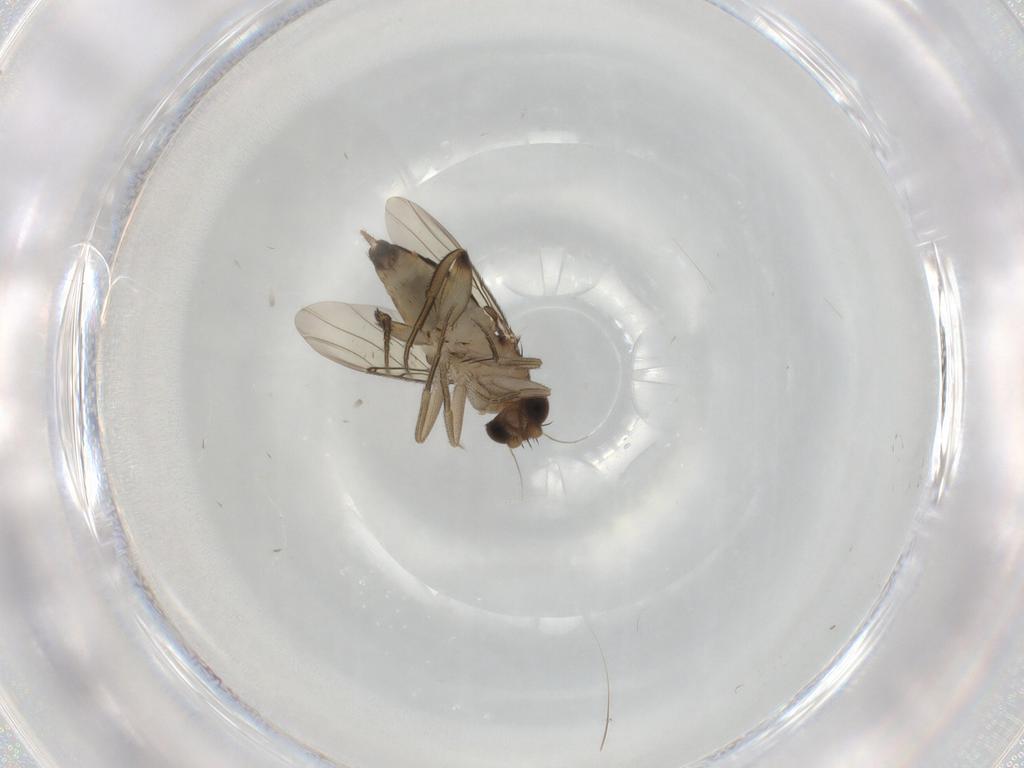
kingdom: Animalia
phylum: Arthropoda
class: Insecta
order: Diptera
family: Phoridae
